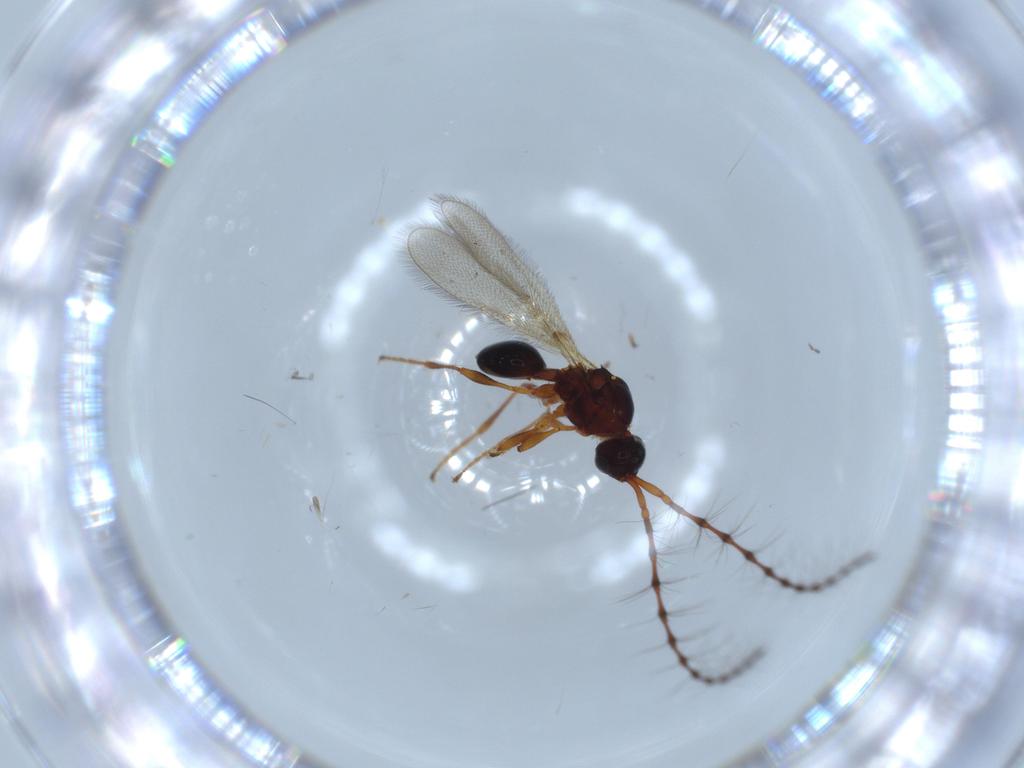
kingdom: Animalia
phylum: Arthropoda
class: Insecta
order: Hymenoptera
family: Diapriidae
